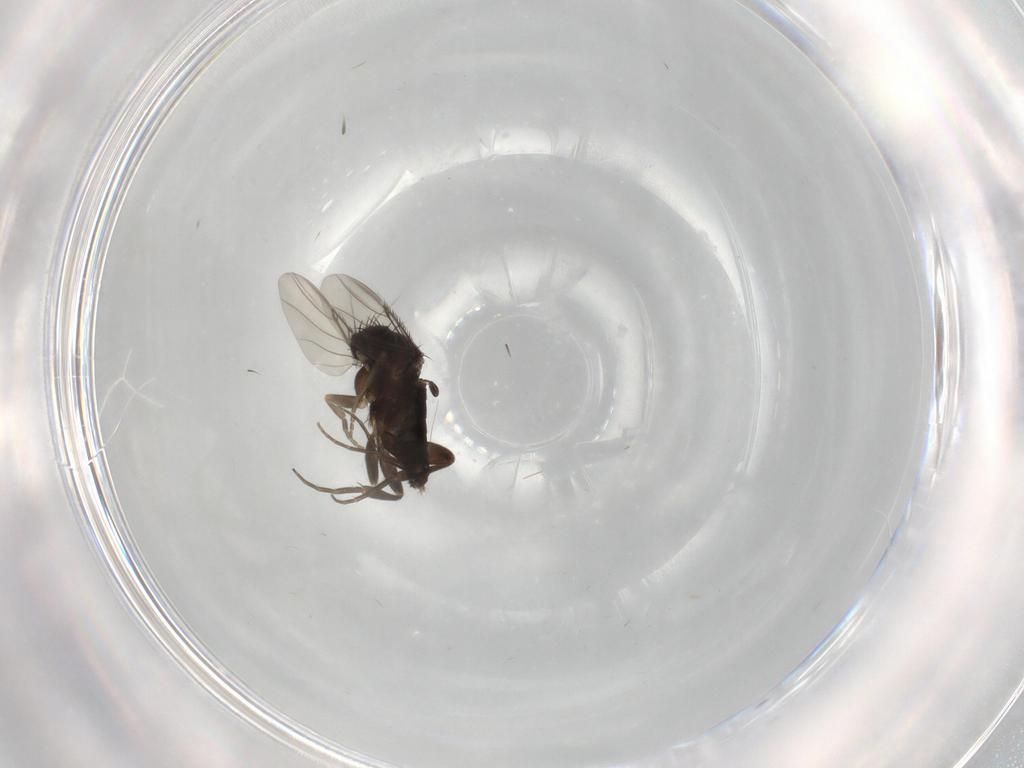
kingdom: Animalia
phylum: Arthropoda
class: Insecta
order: Diptera
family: Phoridae
